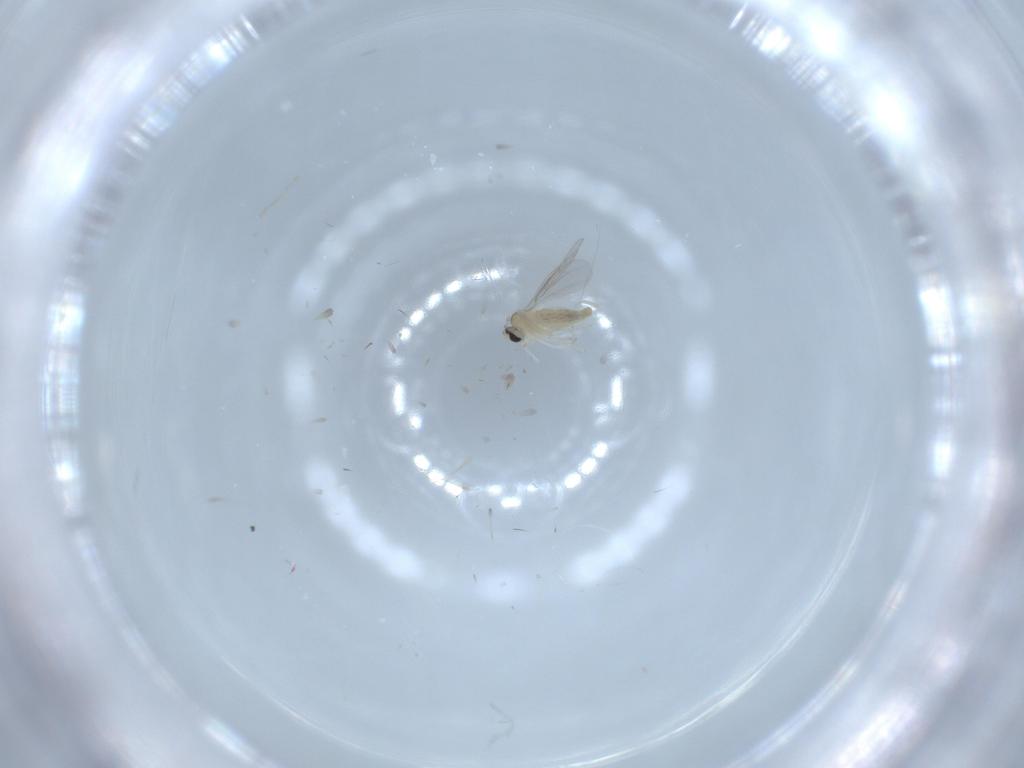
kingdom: Animalia
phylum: Arthropoda
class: Insecta
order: Diptera
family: Cecidomyiidae
